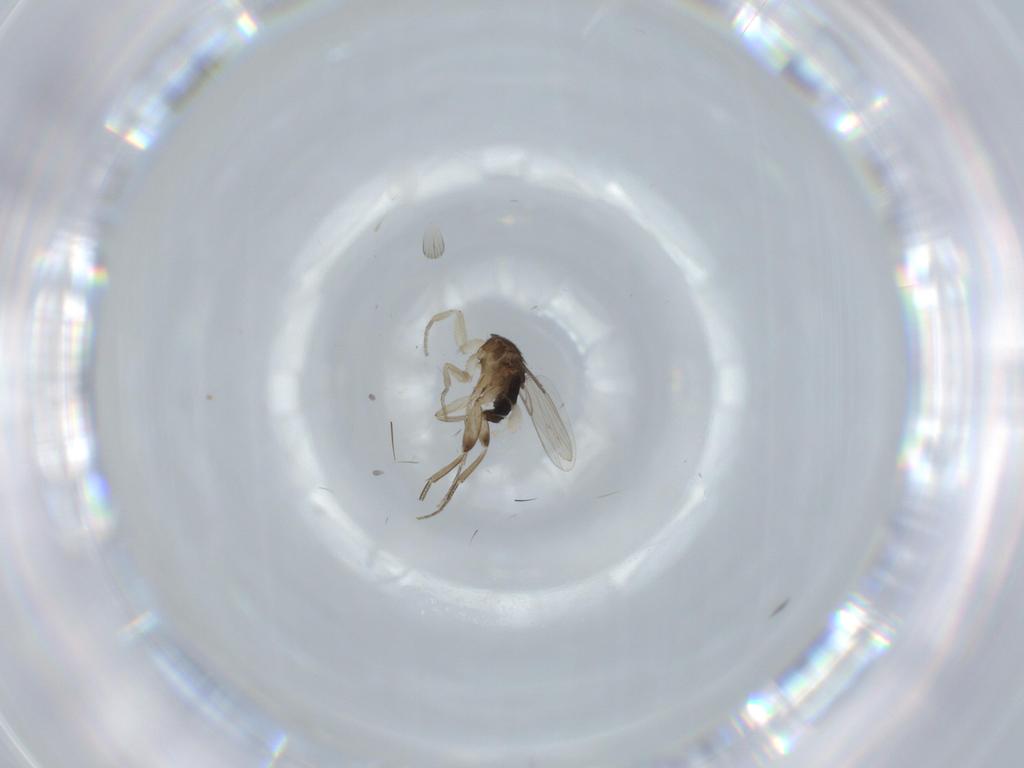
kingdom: Animalia
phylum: Arthropoda
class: Insecta
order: Diptera
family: Phoridae
